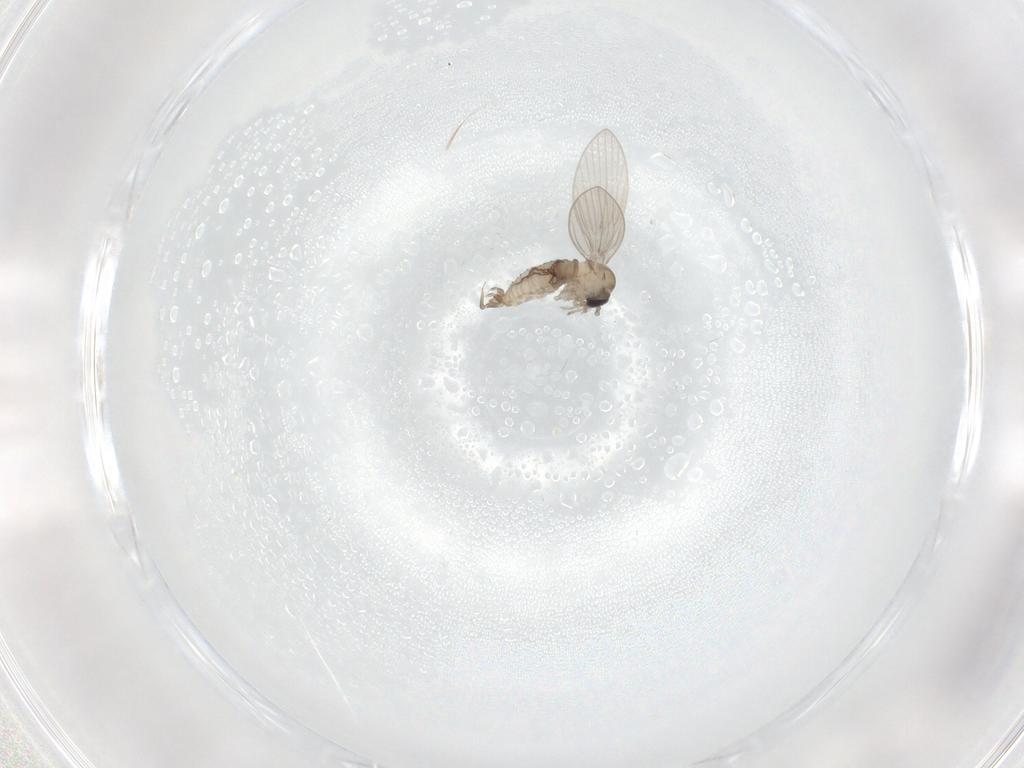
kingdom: Animalia
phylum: Arthropoda
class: Insecta
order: Diptera
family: Psychodidae
